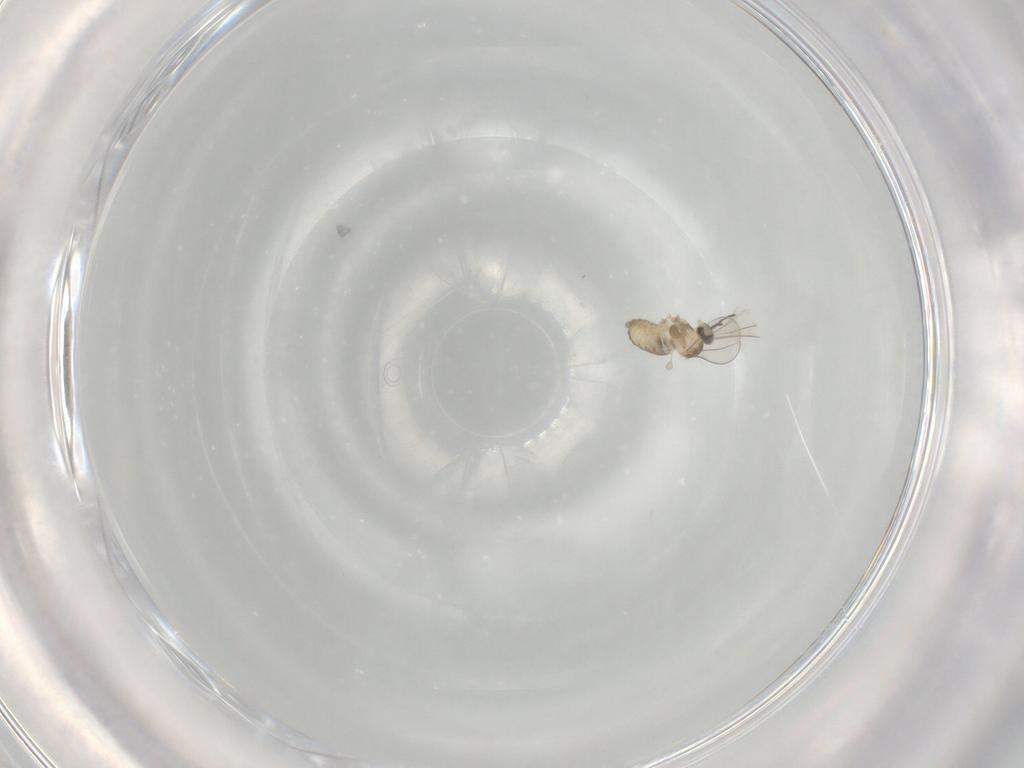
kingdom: Animalia
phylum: Arthropoda
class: Insecta
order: Diptera
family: Cecidomyiidae
